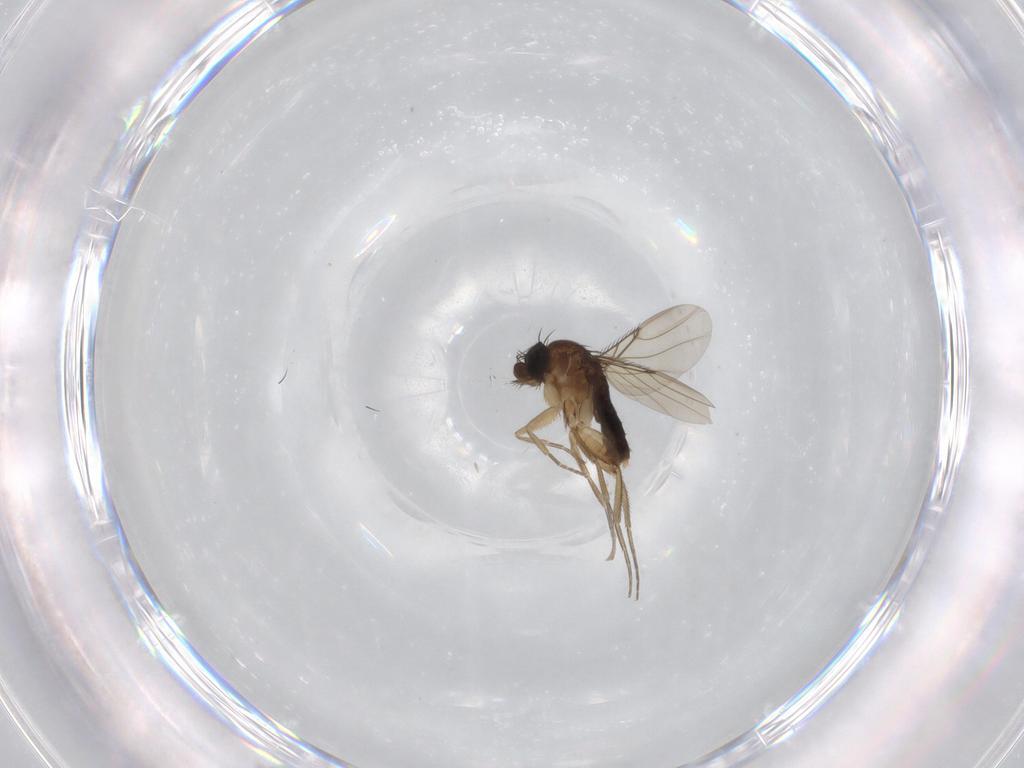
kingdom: Animalia
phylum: Arthropoda
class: Insecta
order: Diptera
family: Phoridae
